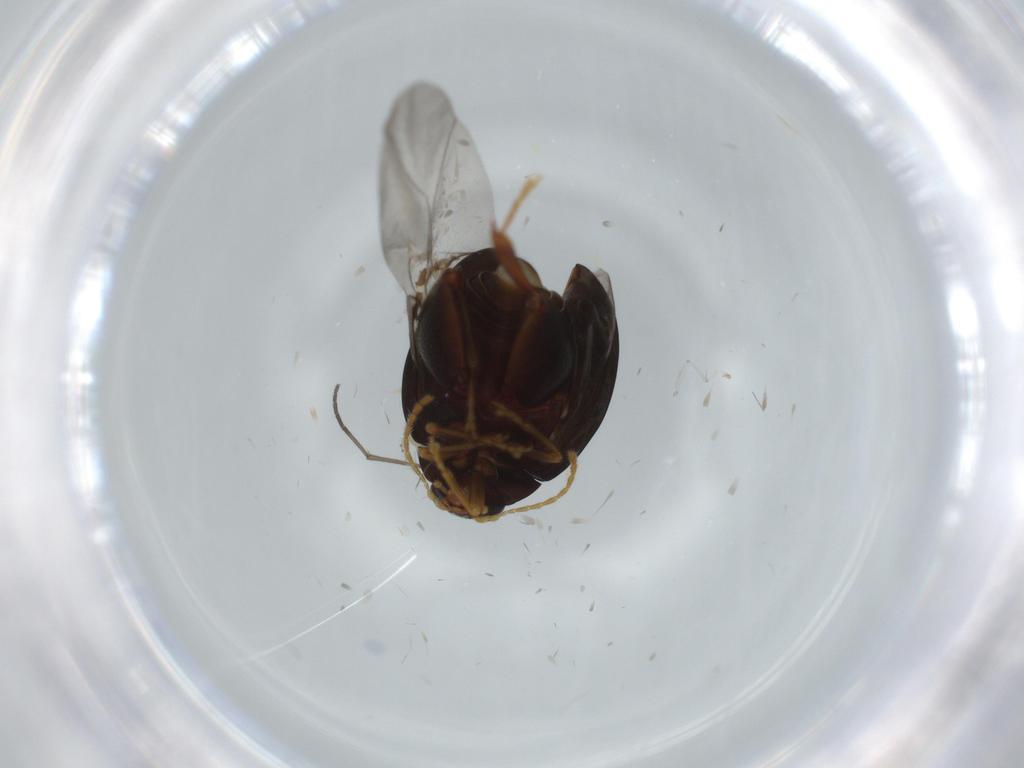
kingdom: Animalia
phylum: Arthropoda
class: Insecta
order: Coleoptera
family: Chrysomelidae
